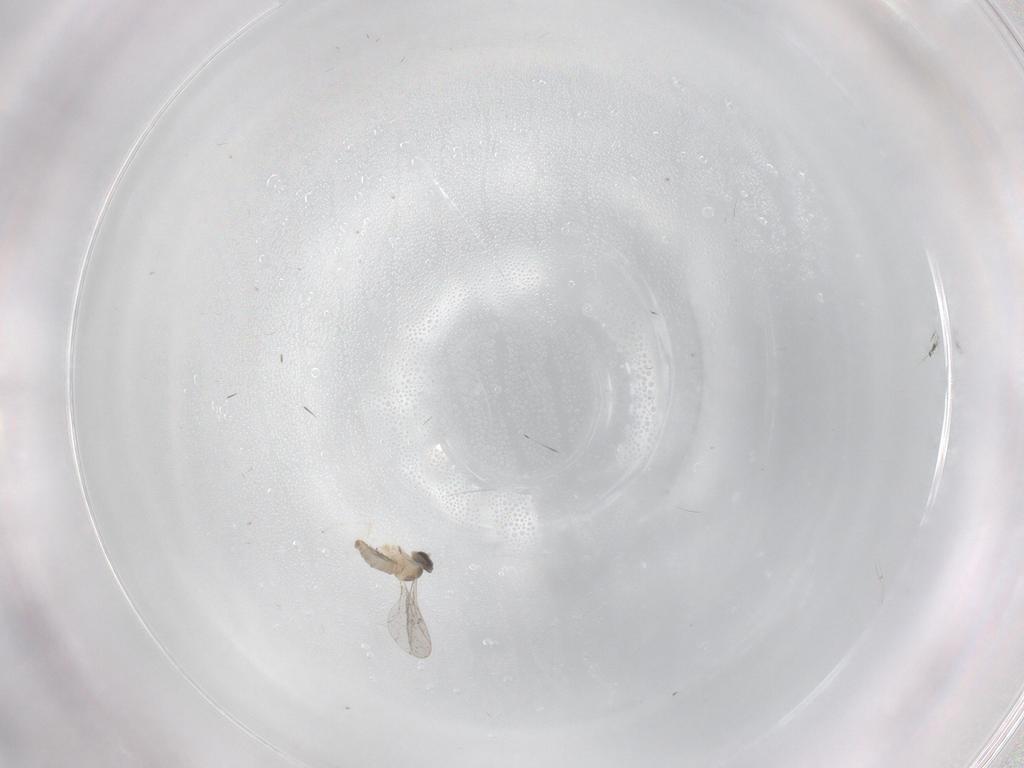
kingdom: Animalia
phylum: Arthropoda
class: Insecta
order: Diptera
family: Cecidomyiidae
